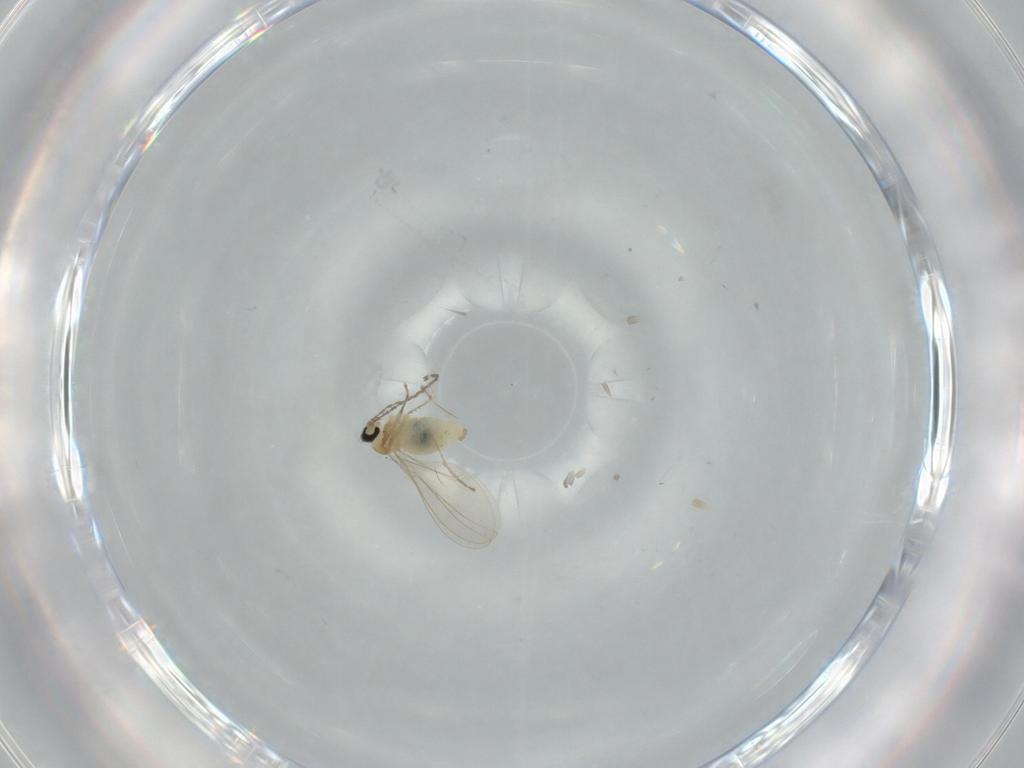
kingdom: Animalia
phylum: Arthropoda
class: Insecta
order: Diptera
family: Cecidomyiidae
